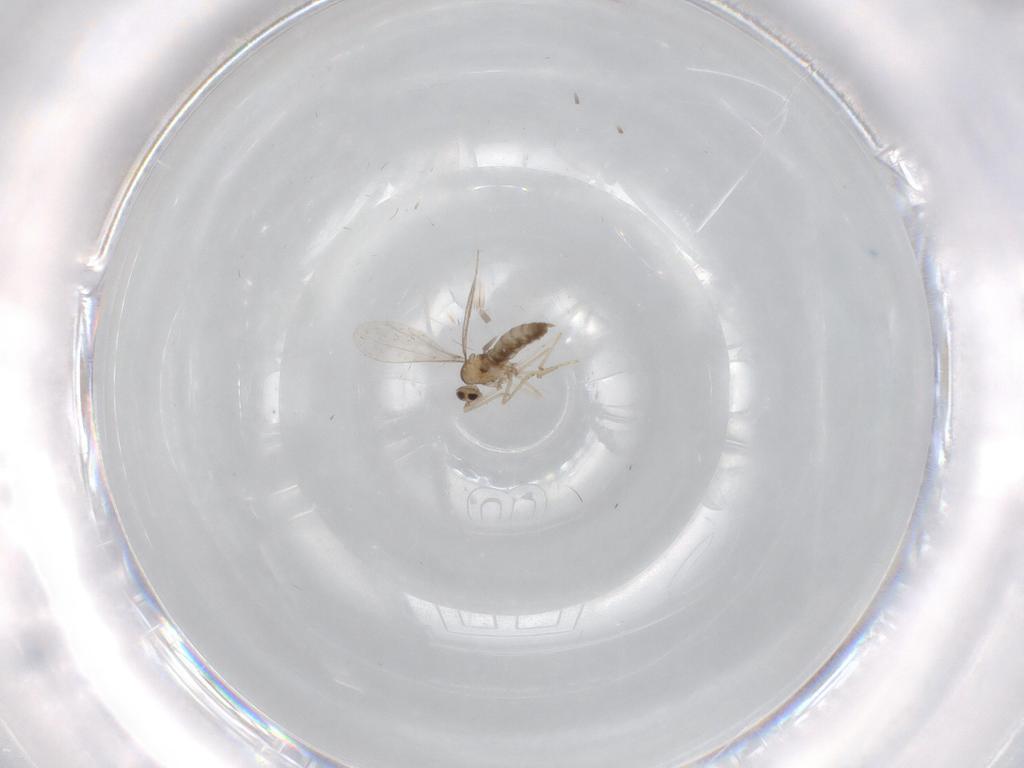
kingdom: Animalia
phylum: Arthropoda
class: Insecta
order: Diptera
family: Cecidomyiidae
